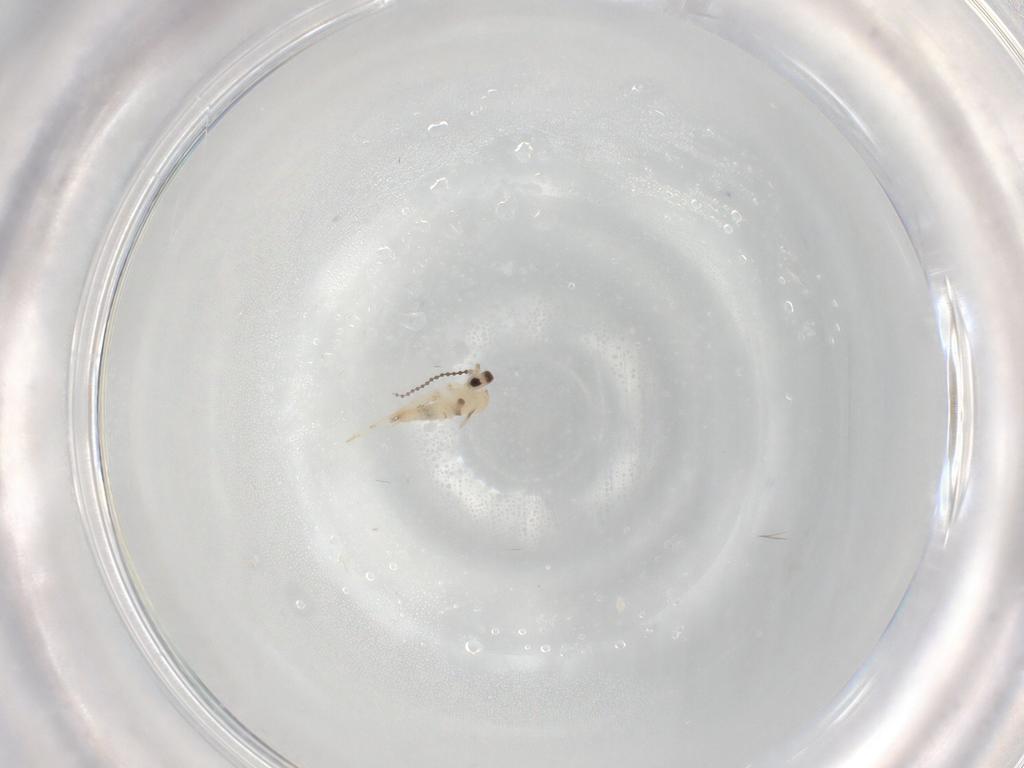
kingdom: Animalia
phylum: Arthropoda
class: Insecta
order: Diptera
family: Cecidomyiidae
